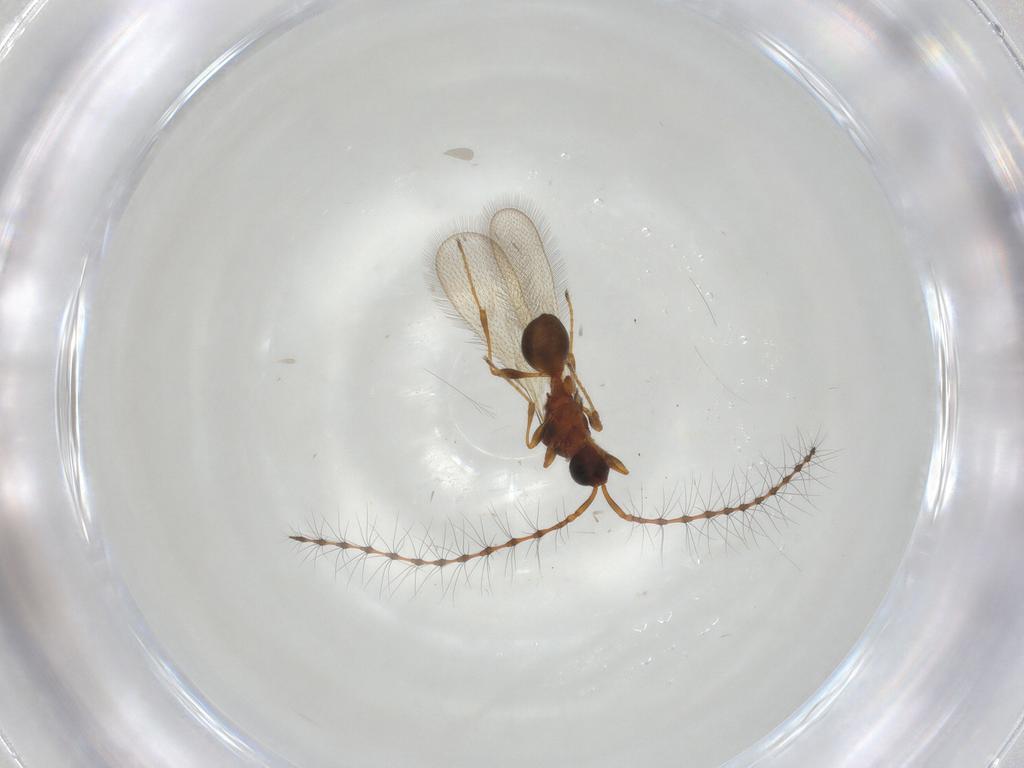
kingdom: Animalia
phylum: Arthropoda
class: Insecta
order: Hymenoptera
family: Diapriidae
